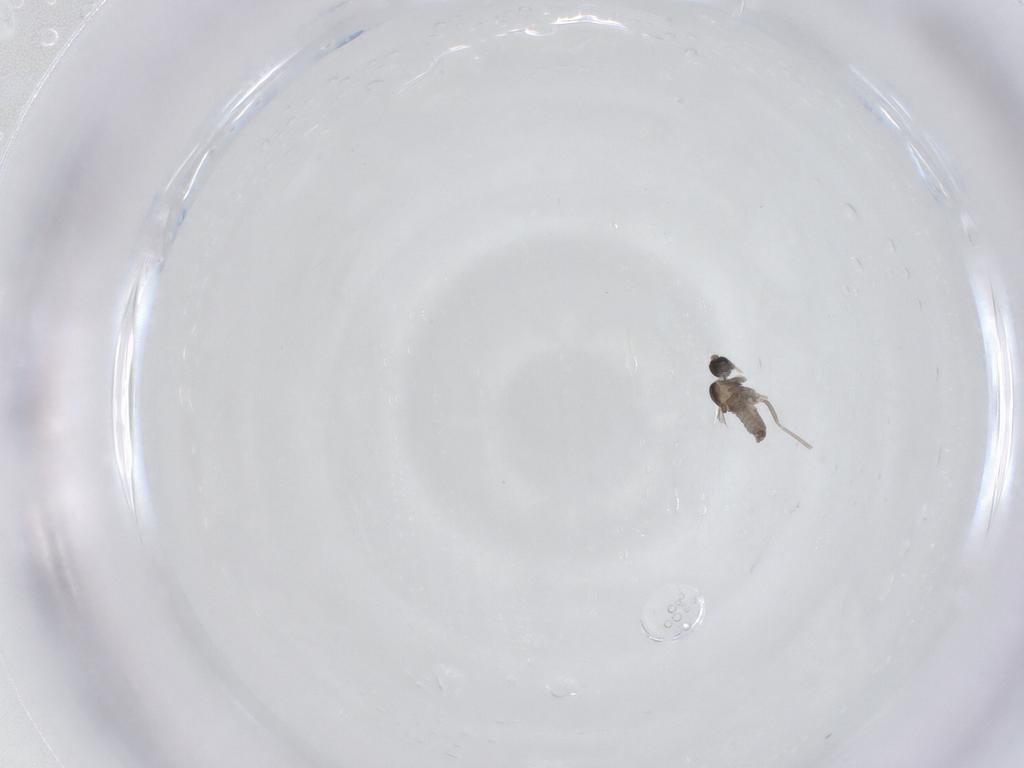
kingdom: Animalia
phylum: Arthropoda
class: Insecta
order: Diptera
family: Cecidomyiidae
